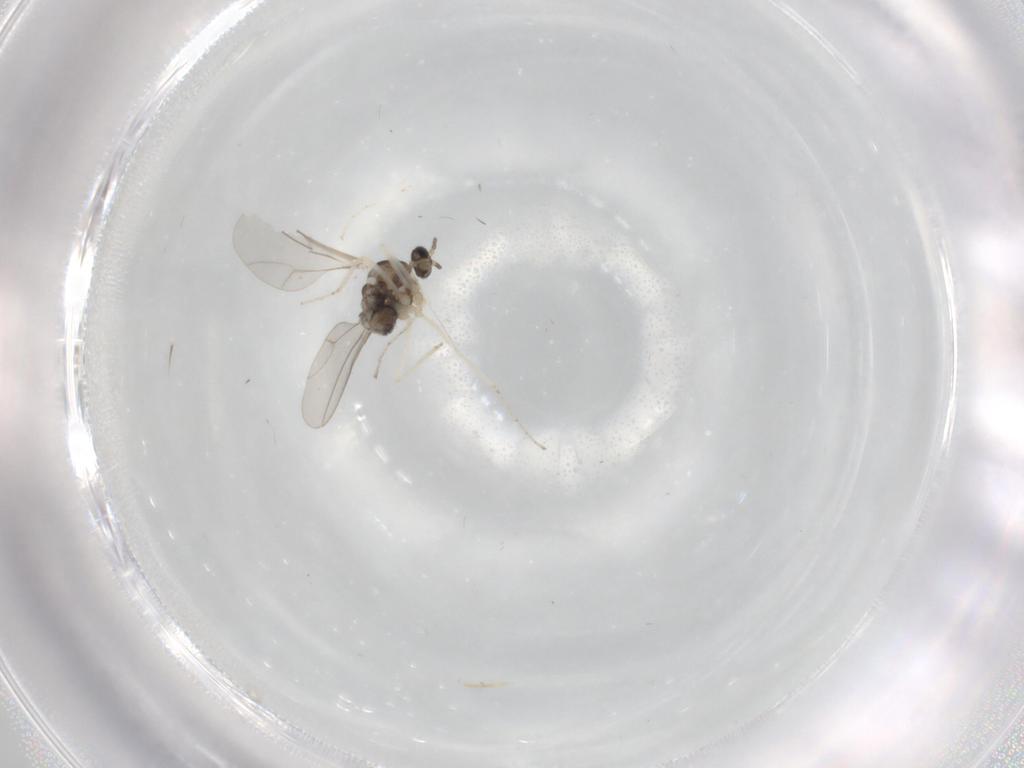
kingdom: Animalia
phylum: Arthropoda
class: Insecta
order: Diptera
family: Cecidomyiidae
